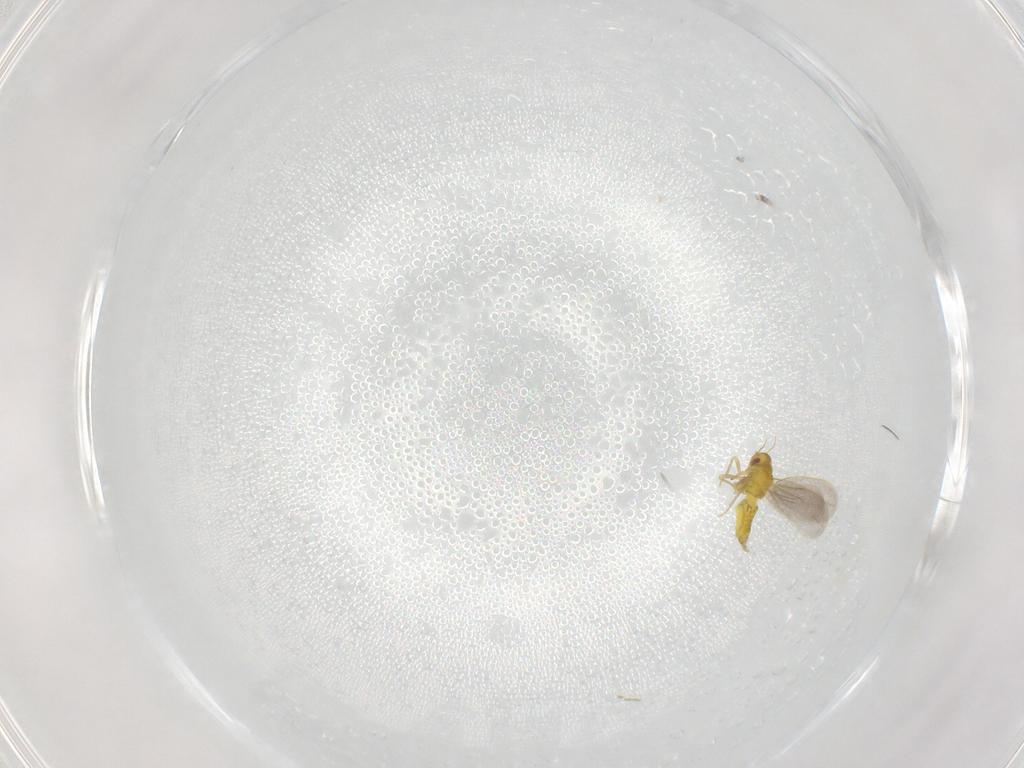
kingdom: Animalia
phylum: Arthropoda
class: Insecta
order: Hemiptera
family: Aleyrodidae
